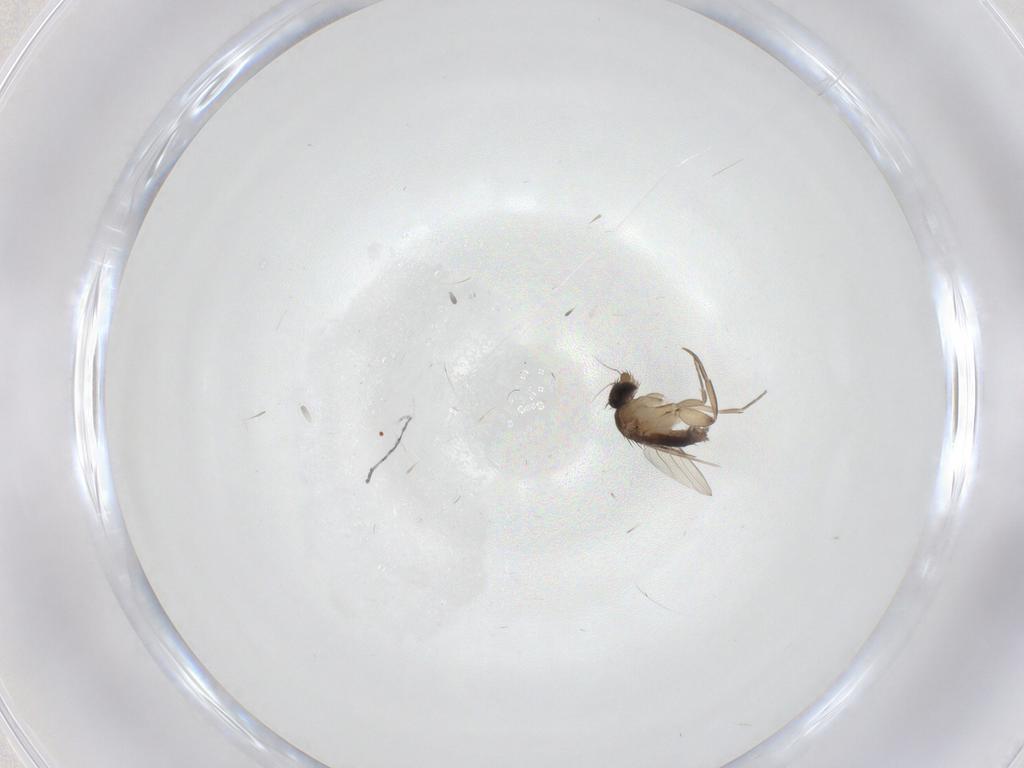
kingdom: Animalia
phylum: Arthropoda
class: Insecta
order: Diptera
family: Phoridae
